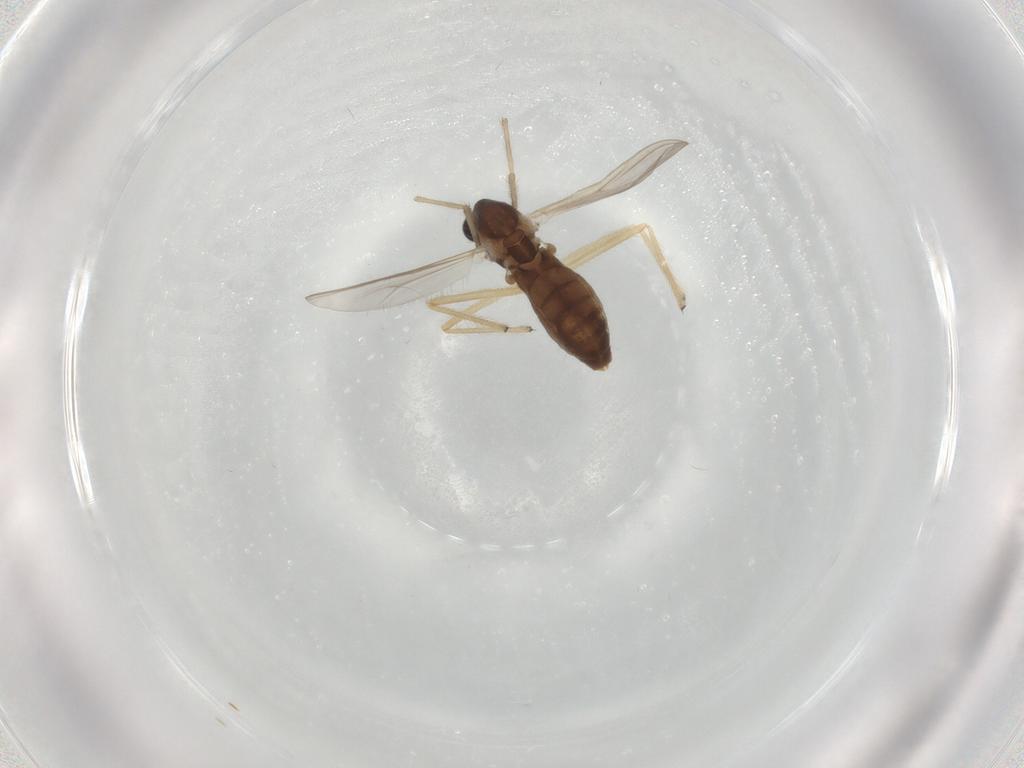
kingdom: Animalia
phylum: Arthropoda
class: Insecta
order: Diptera
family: Chironomidae
